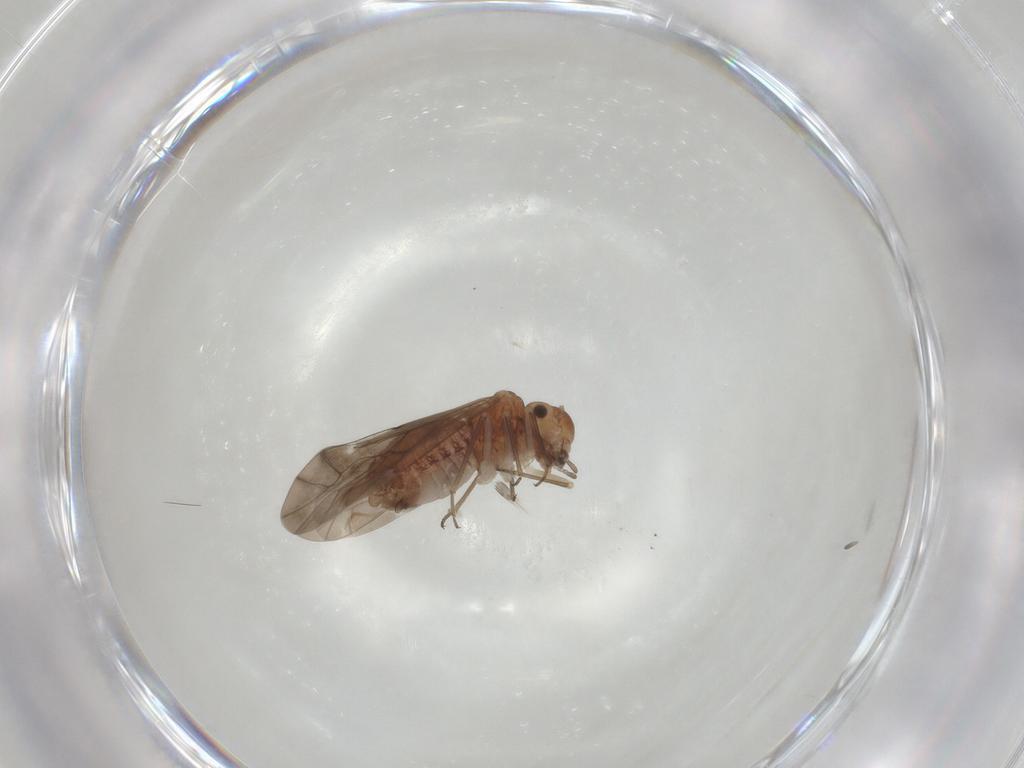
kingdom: Animalia
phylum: Arthropoda
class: Insecta
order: Psocodea
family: Peripsocidae
